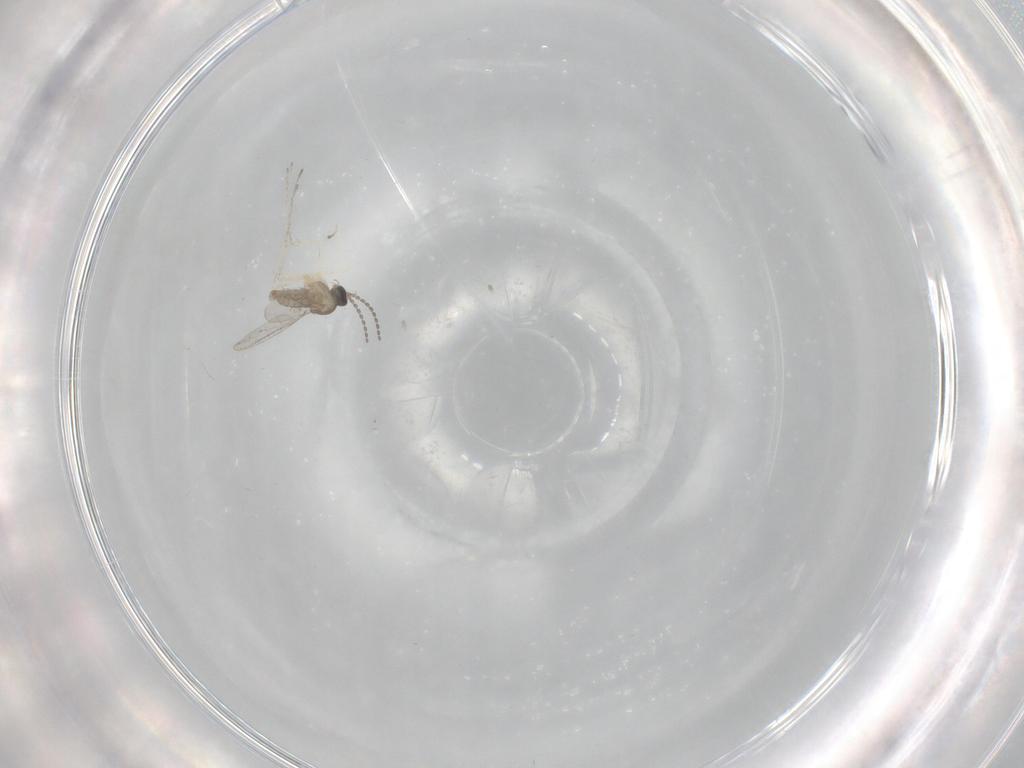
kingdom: Animalia
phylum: Arthropoda
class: Insecta
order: Diptera
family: Cecidomyiidae
